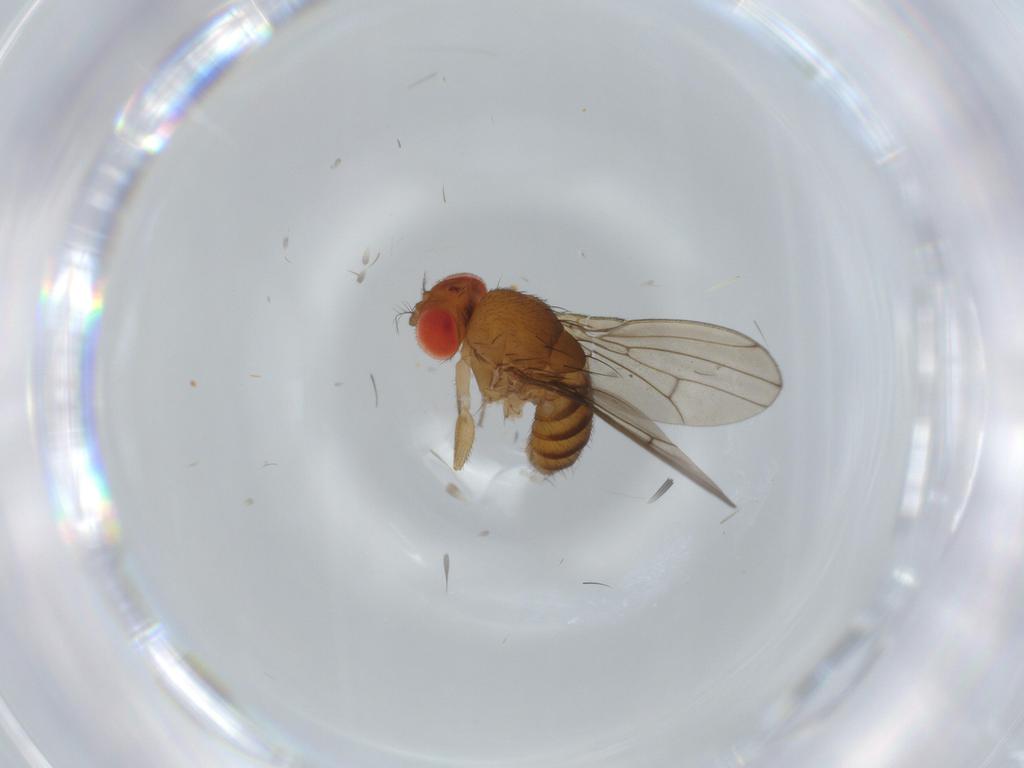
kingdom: Animalia
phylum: Arthropoda
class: Insecta
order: Diptera
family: Drosophilidae
